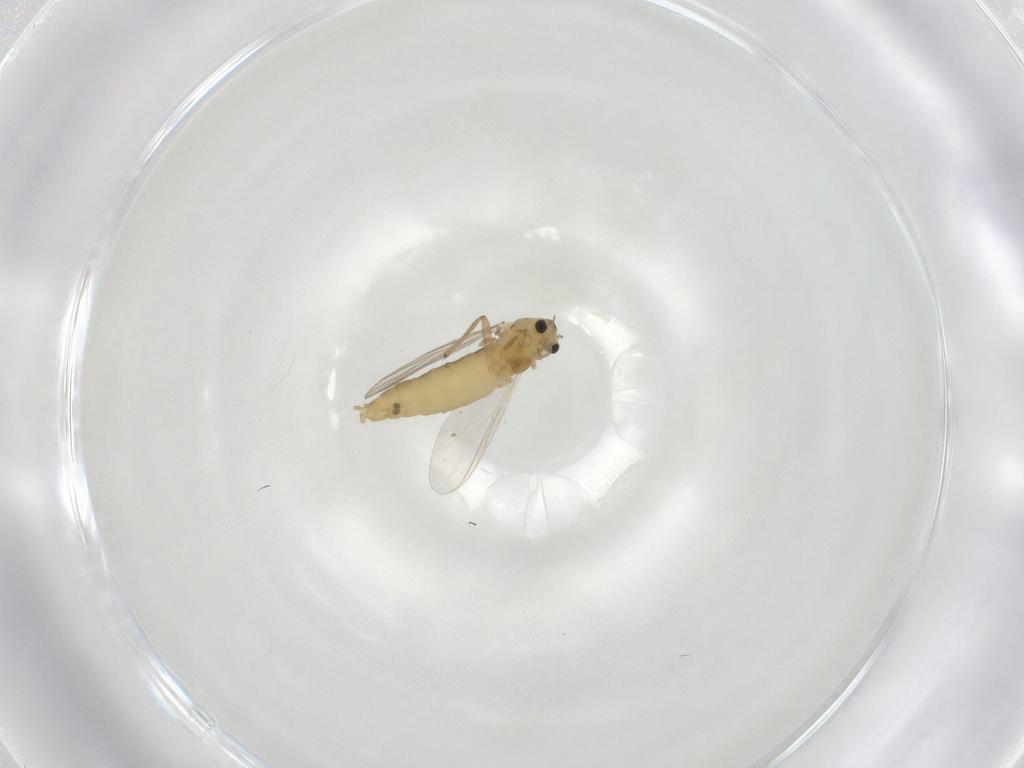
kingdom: Animalia
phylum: Arthropoda
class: Insecta
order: Diptera
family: Chironomidae
